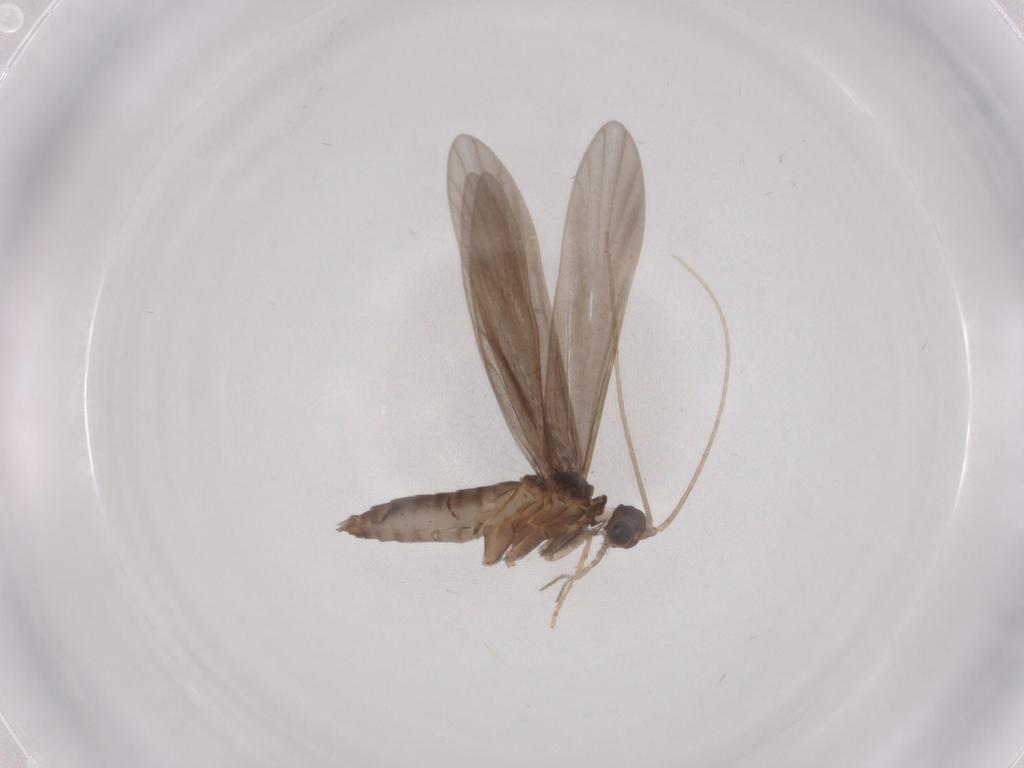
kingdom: Animalia
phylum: Arthropoda
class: Insecta
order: Trichoptera
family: Xiphocentronidae
